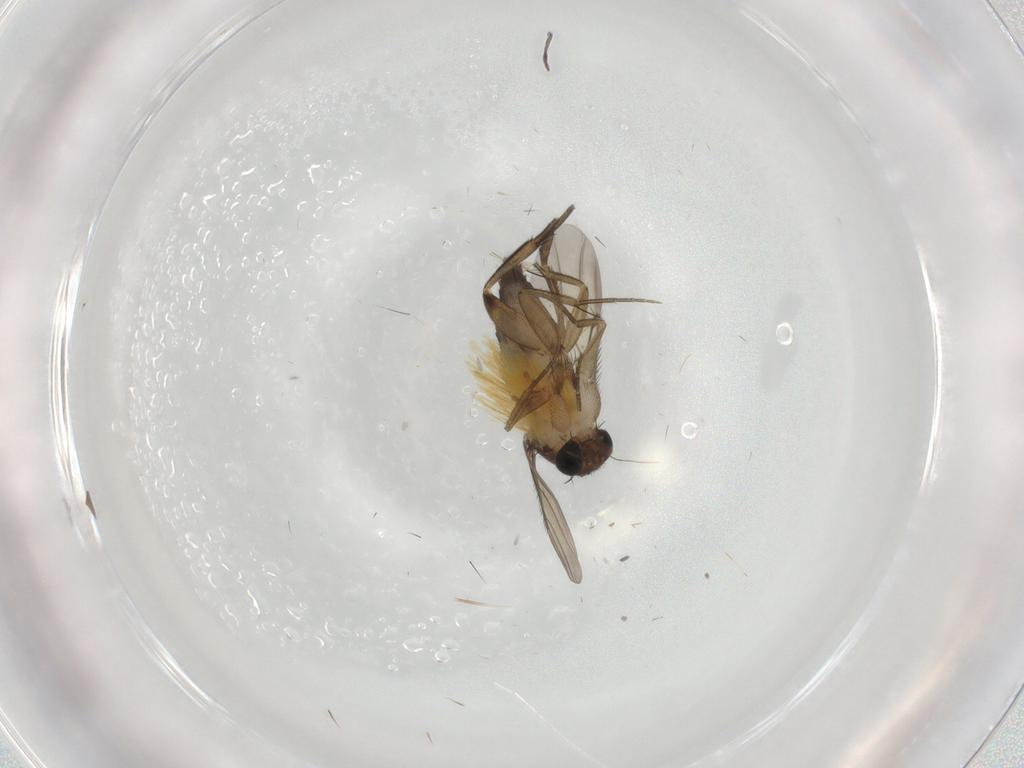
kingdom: Animalia
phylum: Arthropoda
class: Insecta
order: Diptera
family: Phoridae
